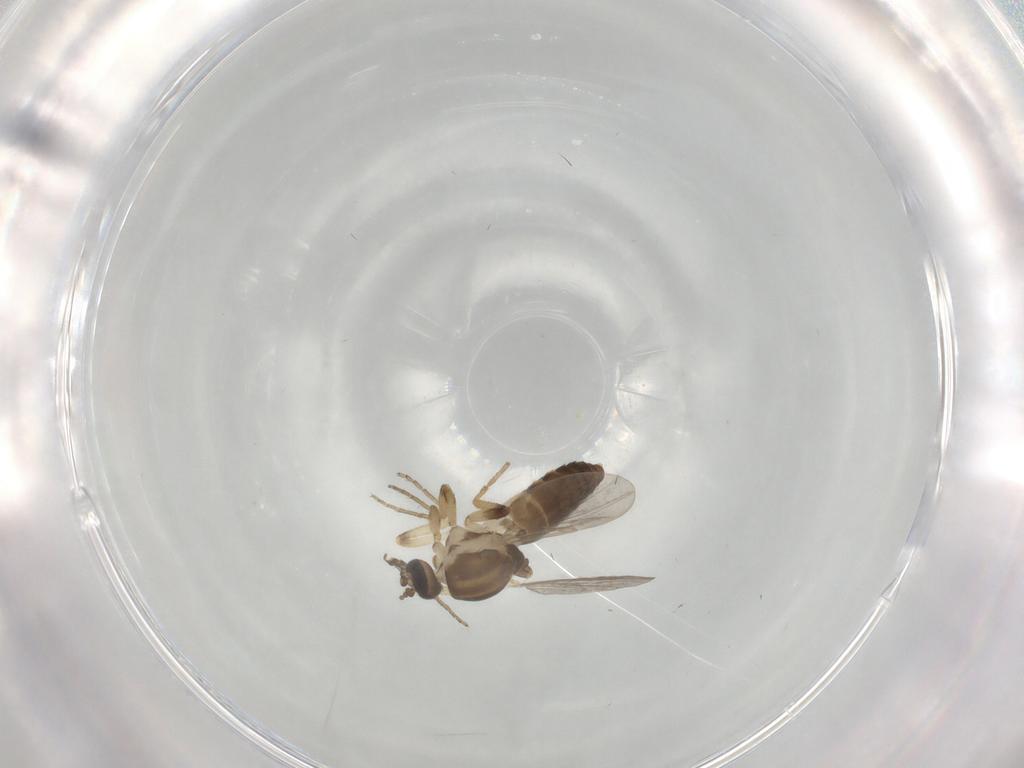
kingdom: Animalia
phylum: Arthropoda
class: Insecta
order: Diptera
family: Ceratopogonidae
